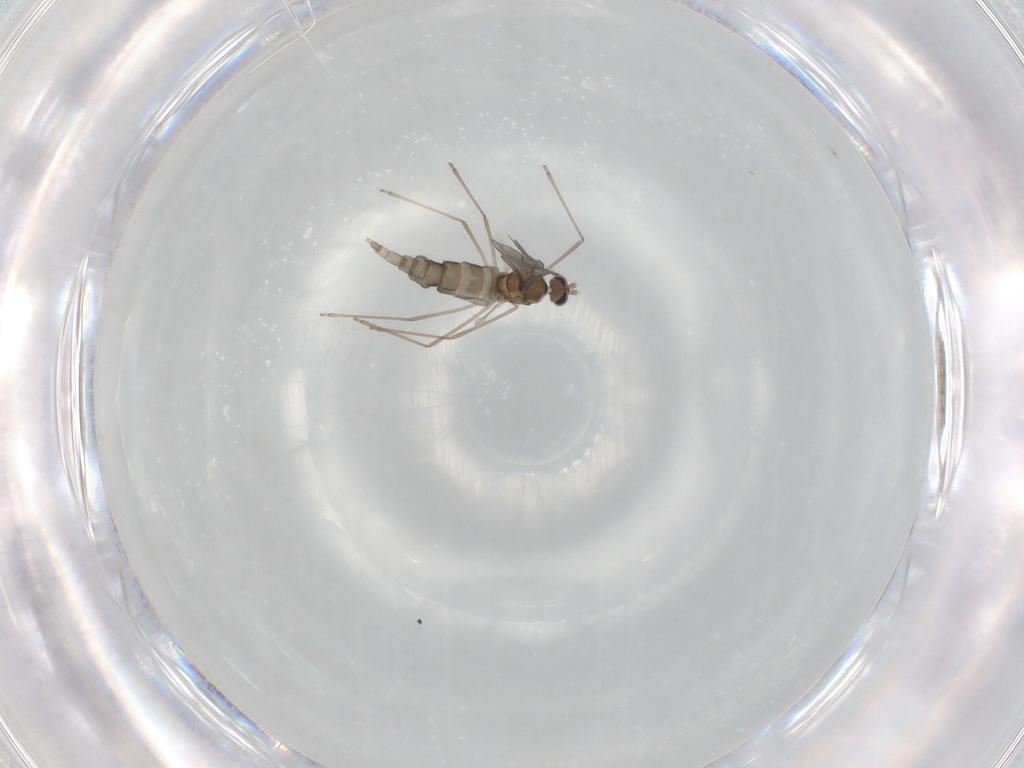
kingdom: Animalia
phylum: Arthropoda
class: Insecta
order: Diptera
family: Cecidomyiidae
